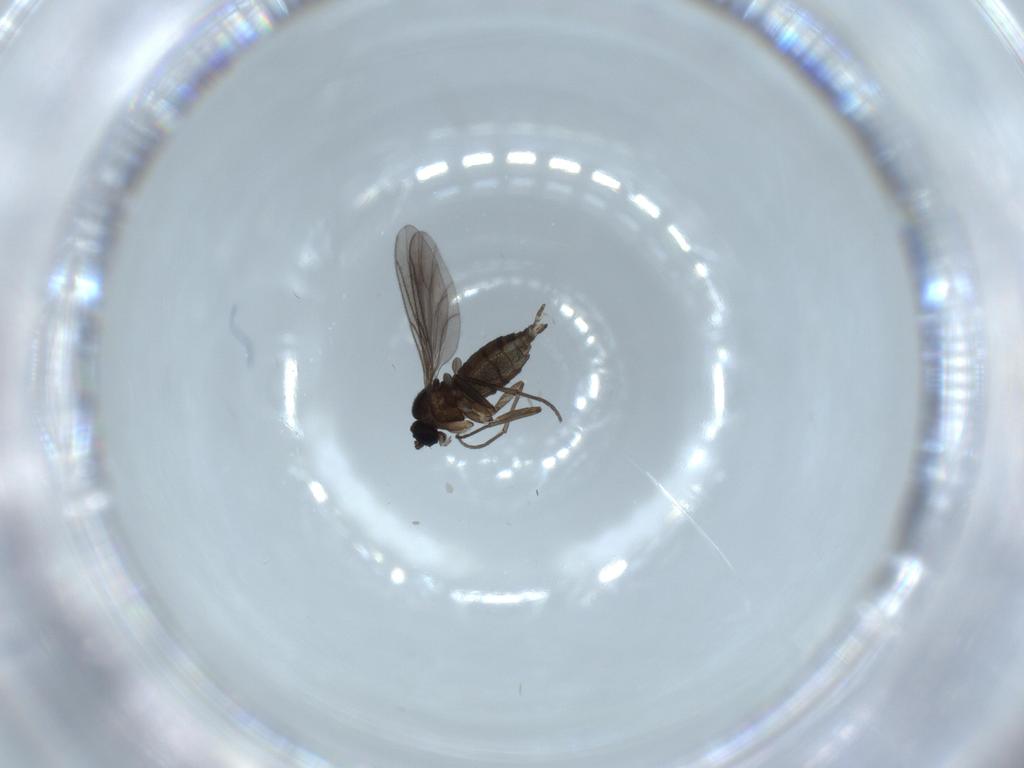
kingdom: Animalia
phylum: Arthropoda
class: Insecta
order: Diptera
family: Sciaridae
